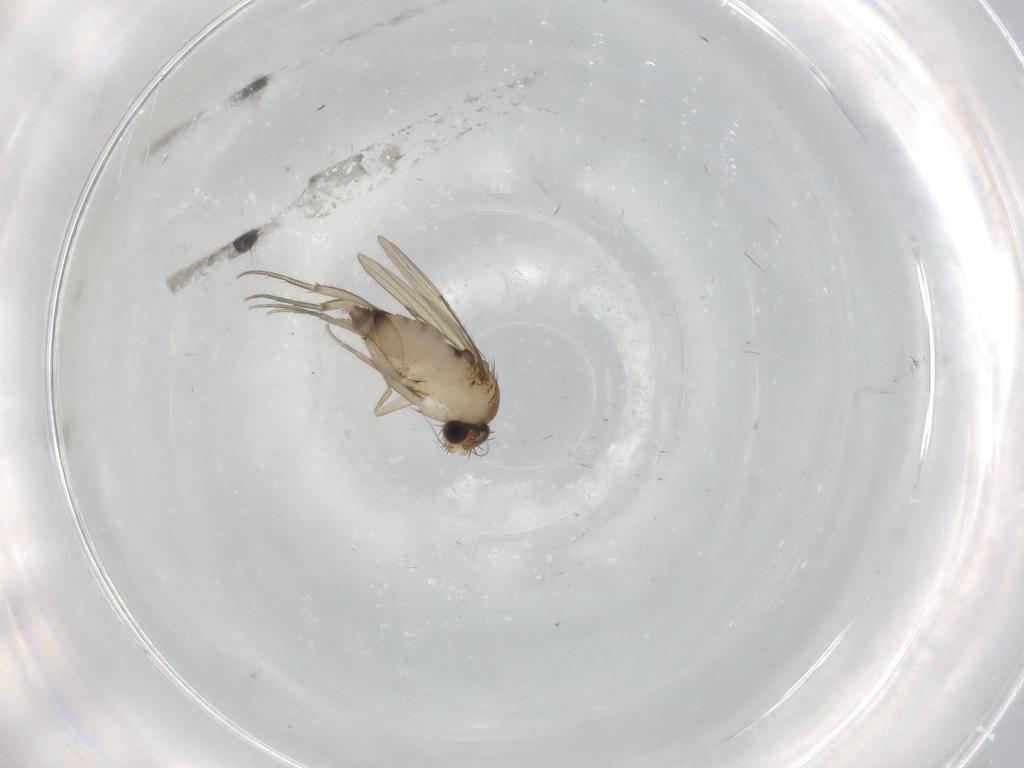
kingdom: Animalia
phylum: Arthropoda
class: Insecta
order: Diptera
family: Phoridae
